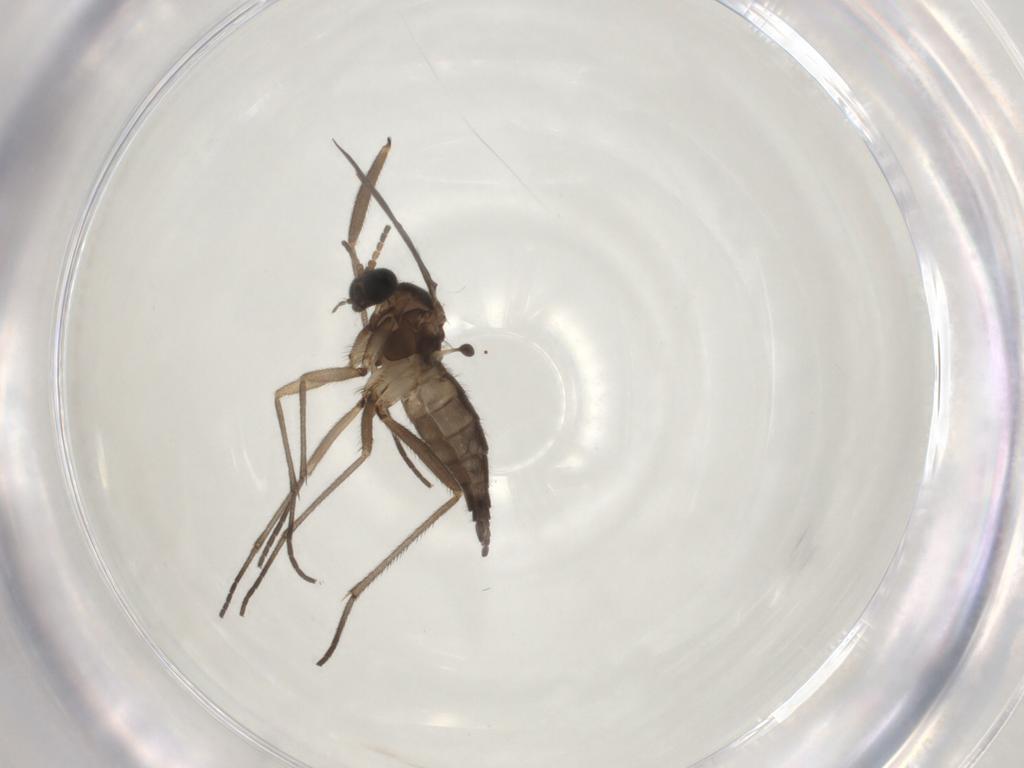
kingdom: Animalia
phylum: Arthropoda
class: Insecta
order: Diptera
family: Sciaridae
